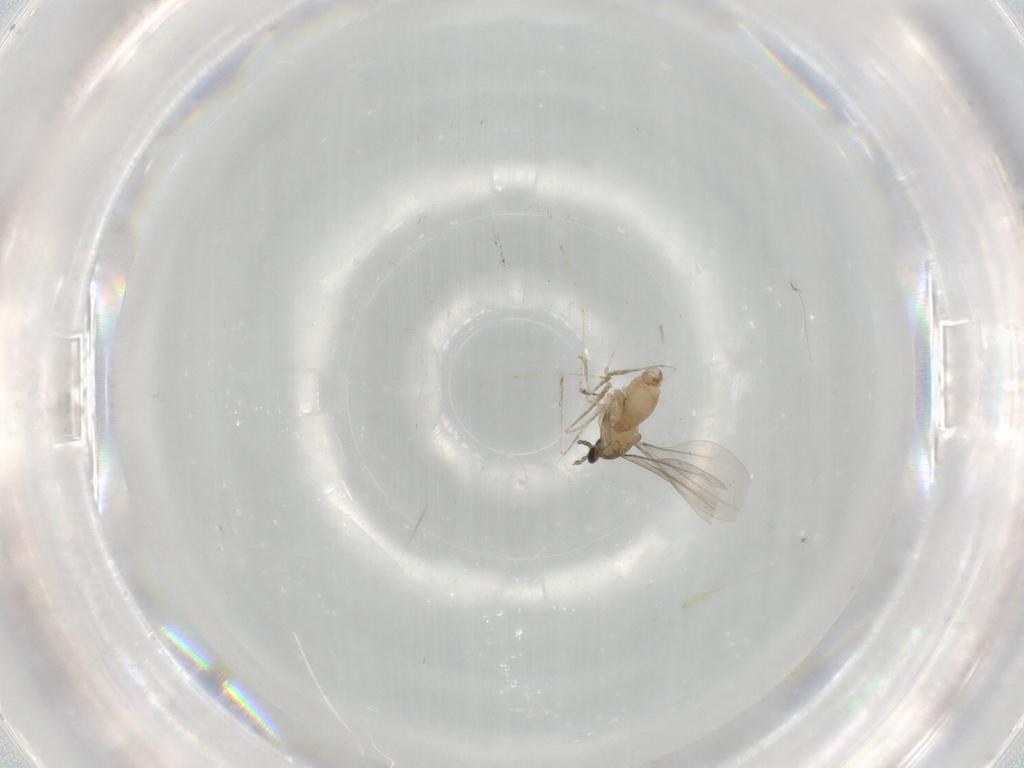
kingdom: Animalia
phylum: Arthropoda
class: Insecta
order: Diptera
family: Cecidomyiidae
